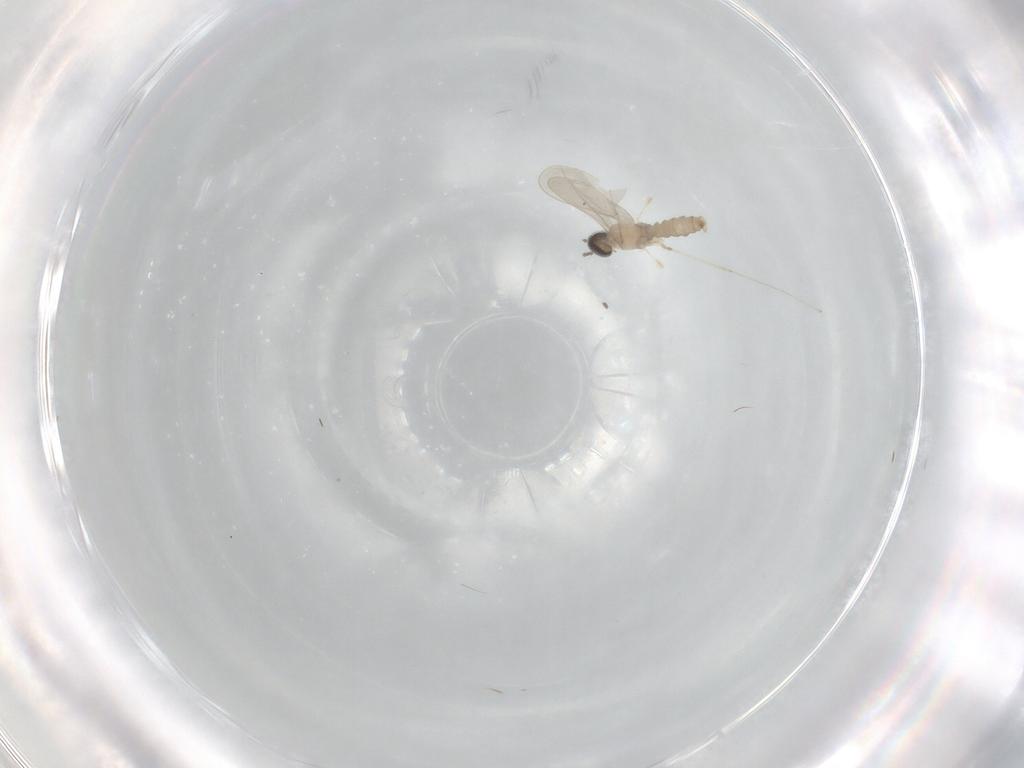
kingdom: Animalia
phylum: Arthropoda
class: Insecta
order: Diptera
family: Cecidomyiidae
